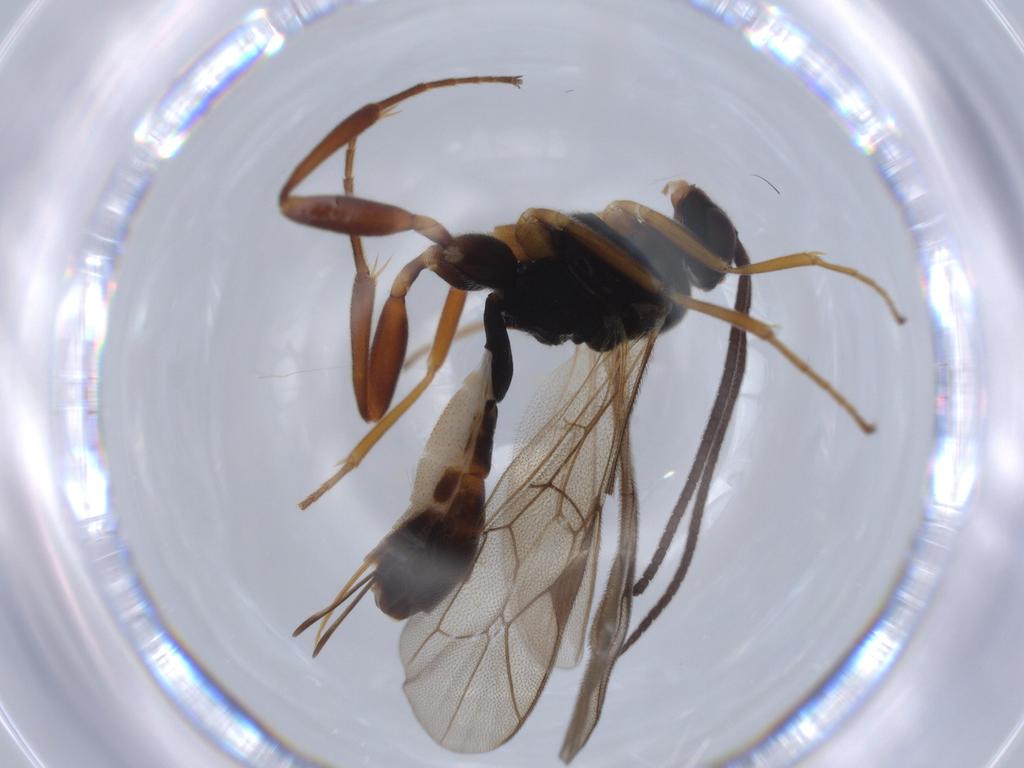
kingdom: Animalia
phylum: Arthropoda
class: Insecta
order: Hymenoptera
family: Ichneumonidae
